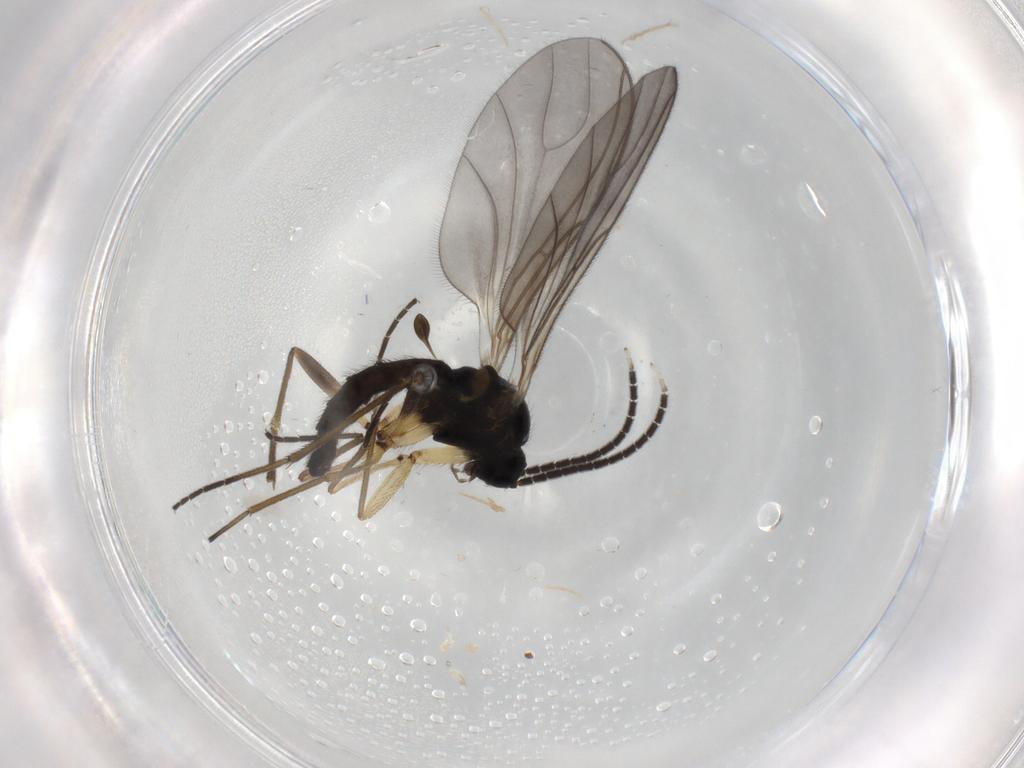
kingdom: Animalia
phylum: Arthropoda
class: Insecta
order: Diptera
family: Sciaridae
